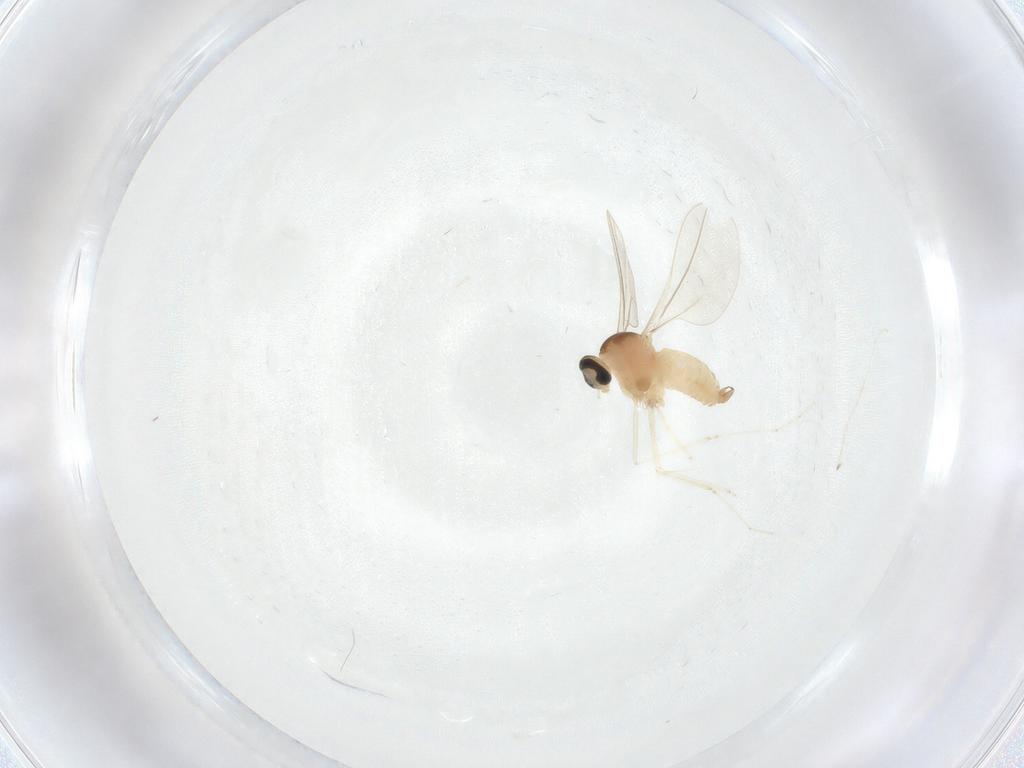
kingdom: Animalia
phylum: Arthropoda
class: Insecta
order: Diptera
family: Cecidomyiidae
